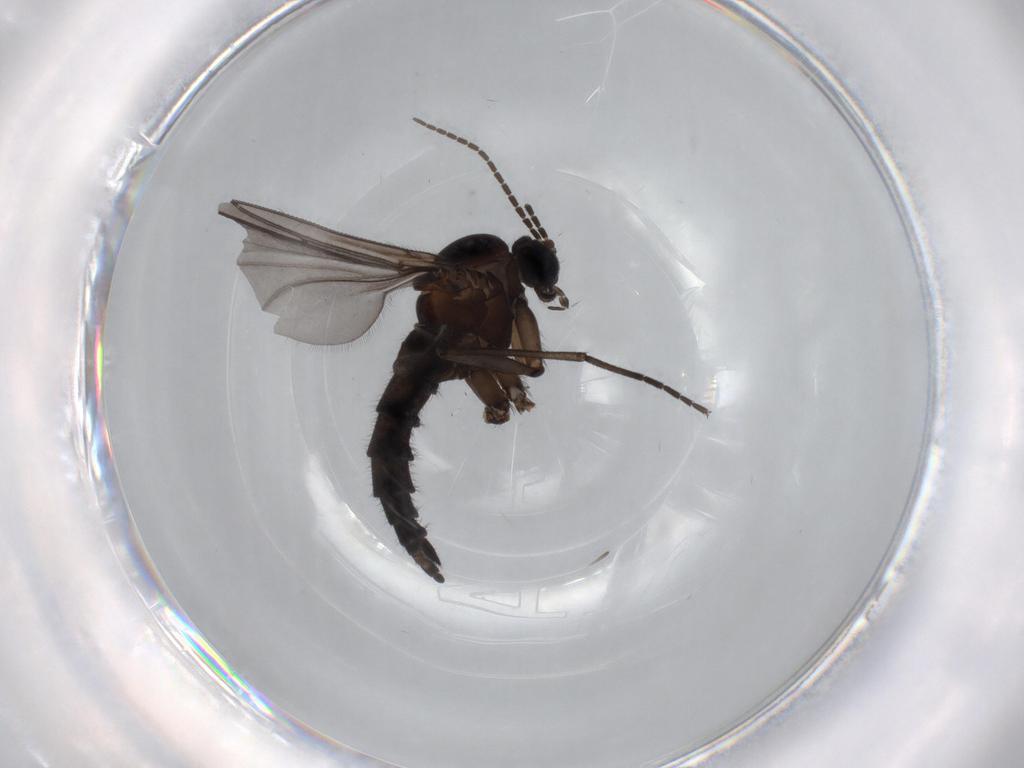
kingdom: Animalia
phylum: Arthropoda
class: Insecta
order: Diptera
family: Sciaridae
